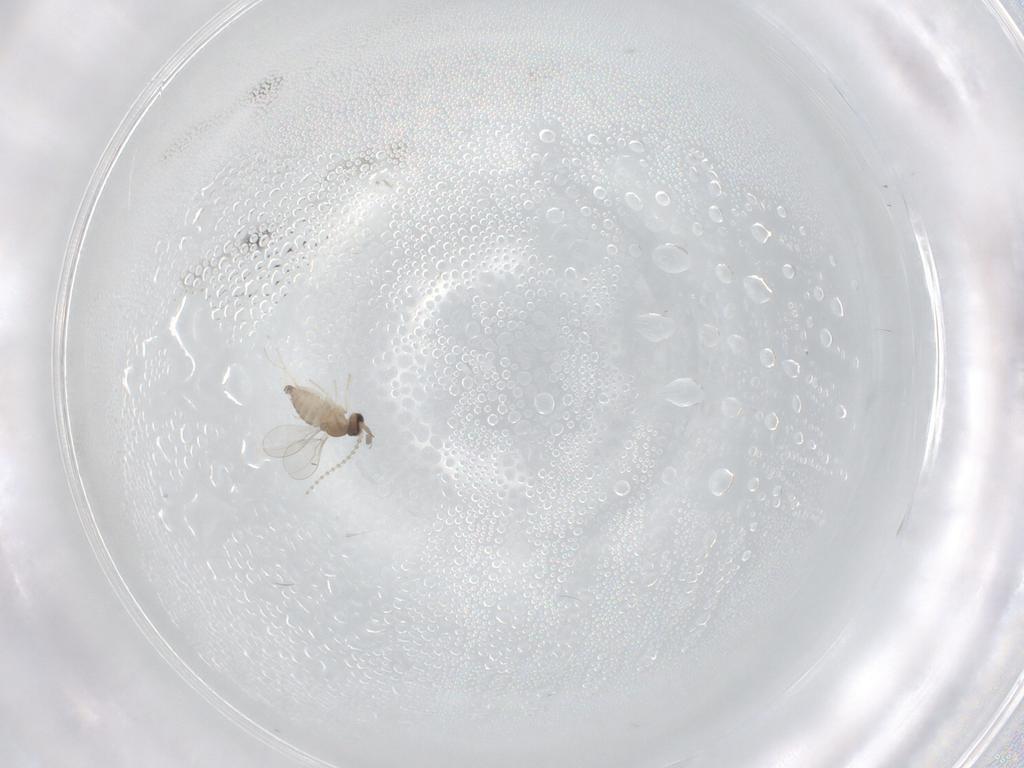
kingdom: Animalia
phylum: Arthropoda
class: Insecta
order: Diptera
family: Cecidomyiidae
